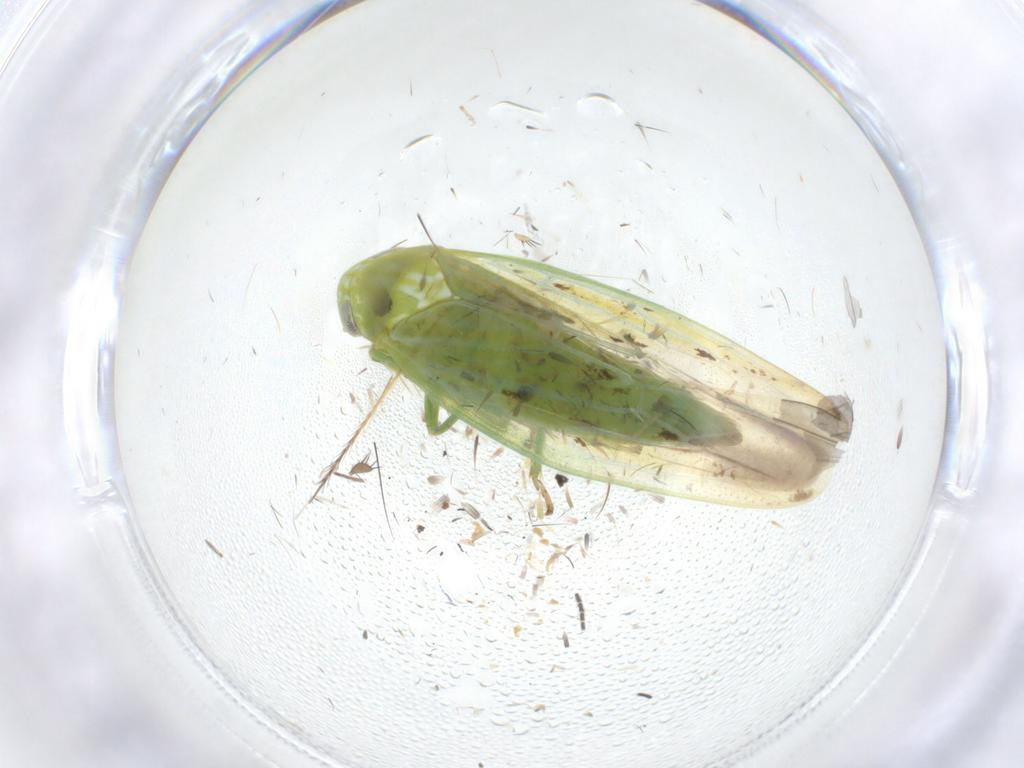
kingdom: Animalia
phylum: Arthropoda
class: Insecta
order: Hemiptera
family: Cicadellidae
